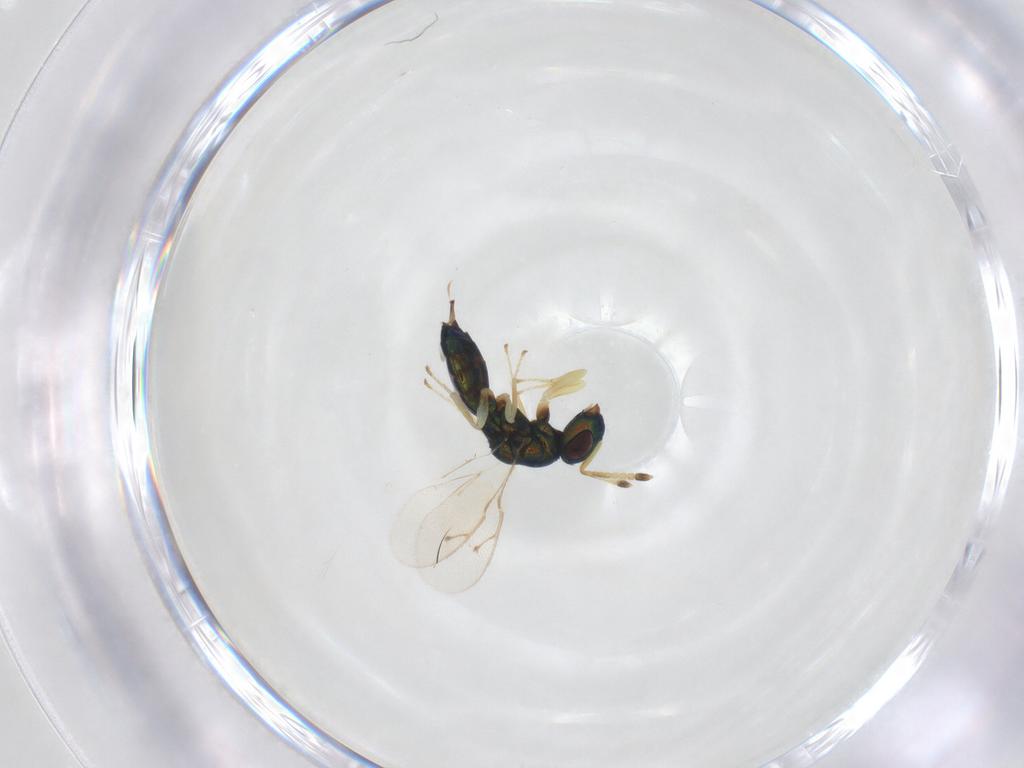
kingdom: Animalia
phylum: Arthropoda
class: Insecta
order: Hymenoptera
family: Pteromalidae
